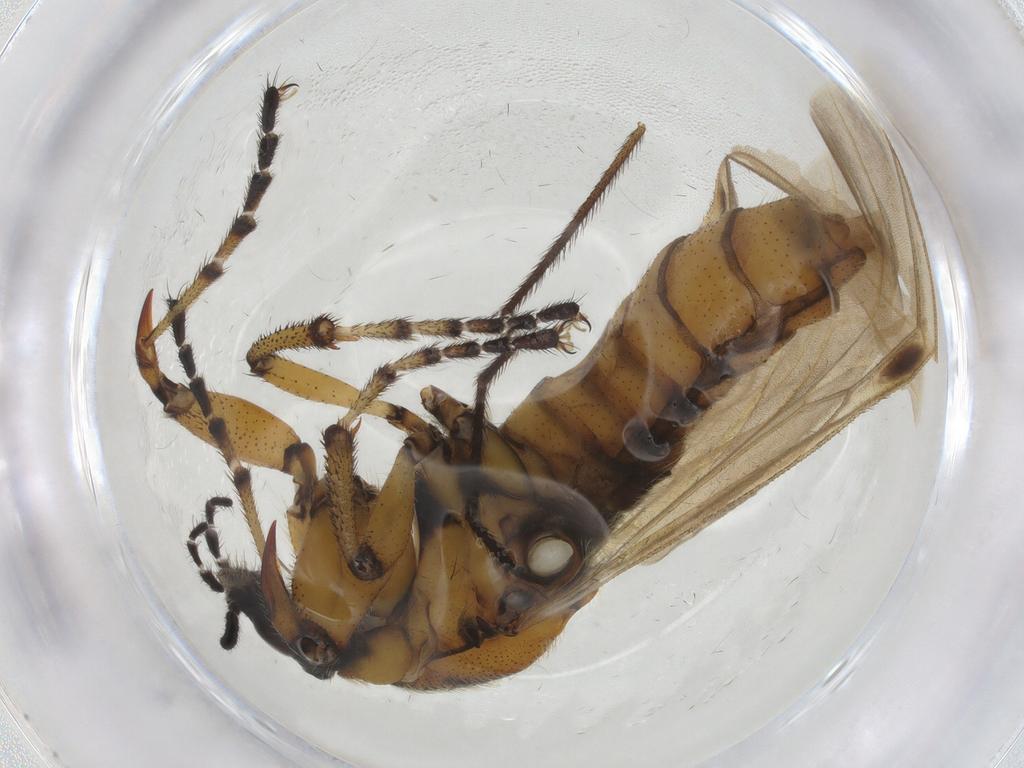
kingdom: Animalia
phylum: Arthropoda
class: Insecta
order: Diptera
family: Bibionidae
